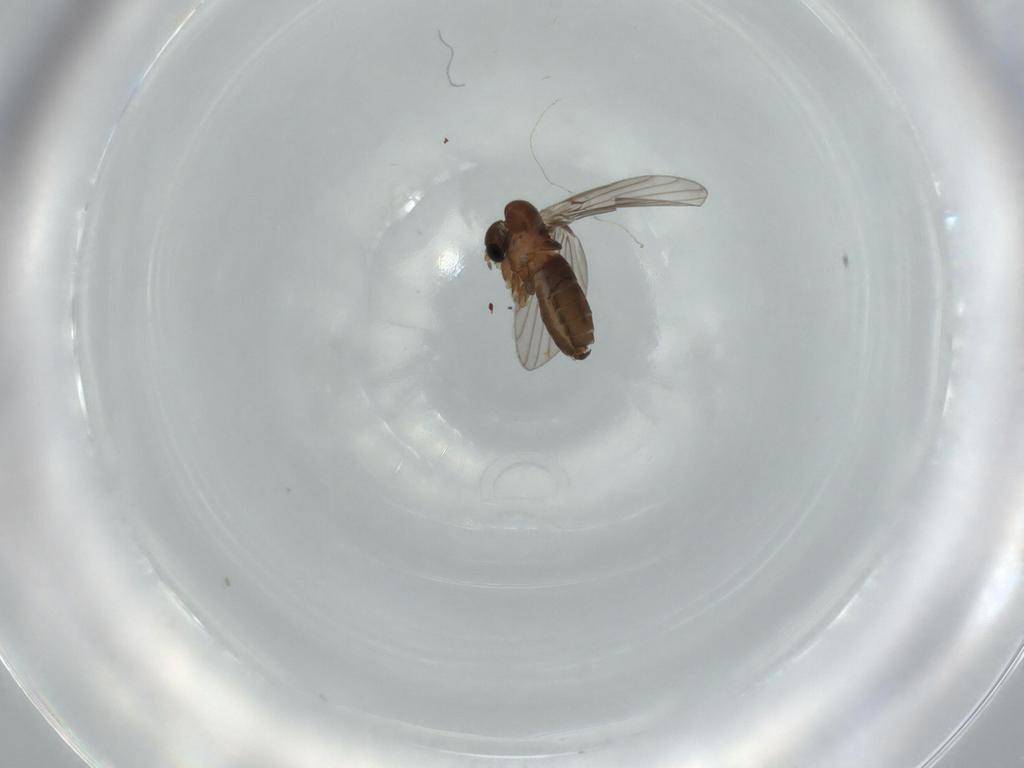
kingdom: Animalia
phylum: Arthropoda
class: Insecta
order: Diptera
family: Psychodidae
